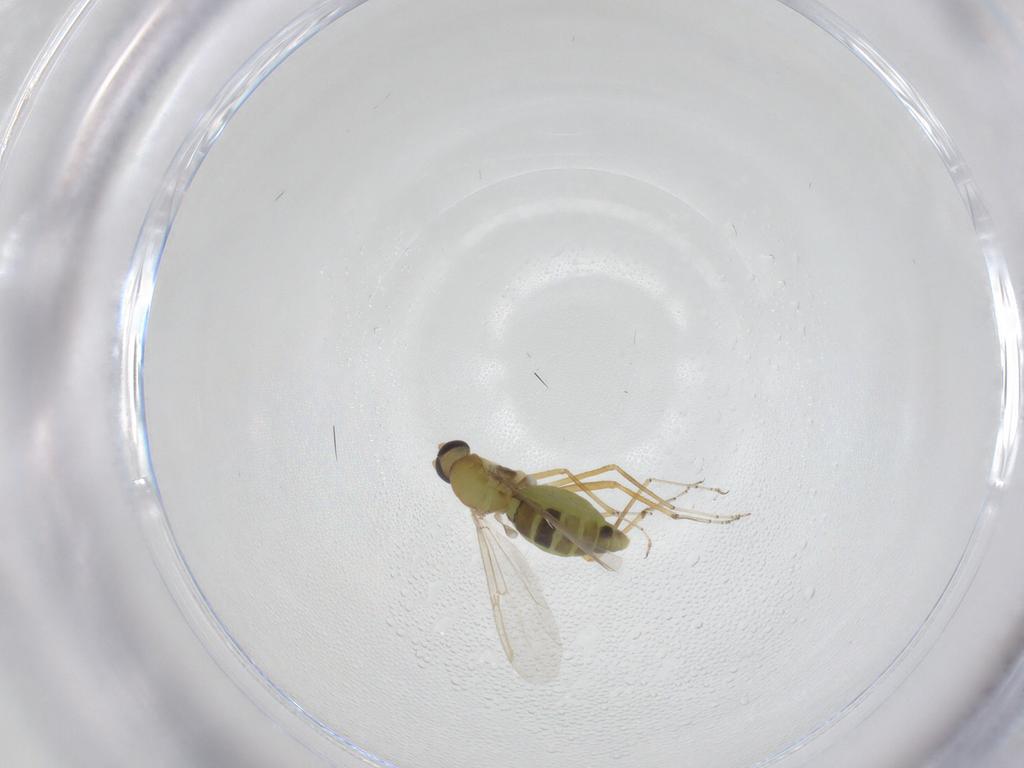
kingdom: Animalia
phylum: Arthropoda
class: Insecta
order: Diptera
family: Ceratopogonidae
